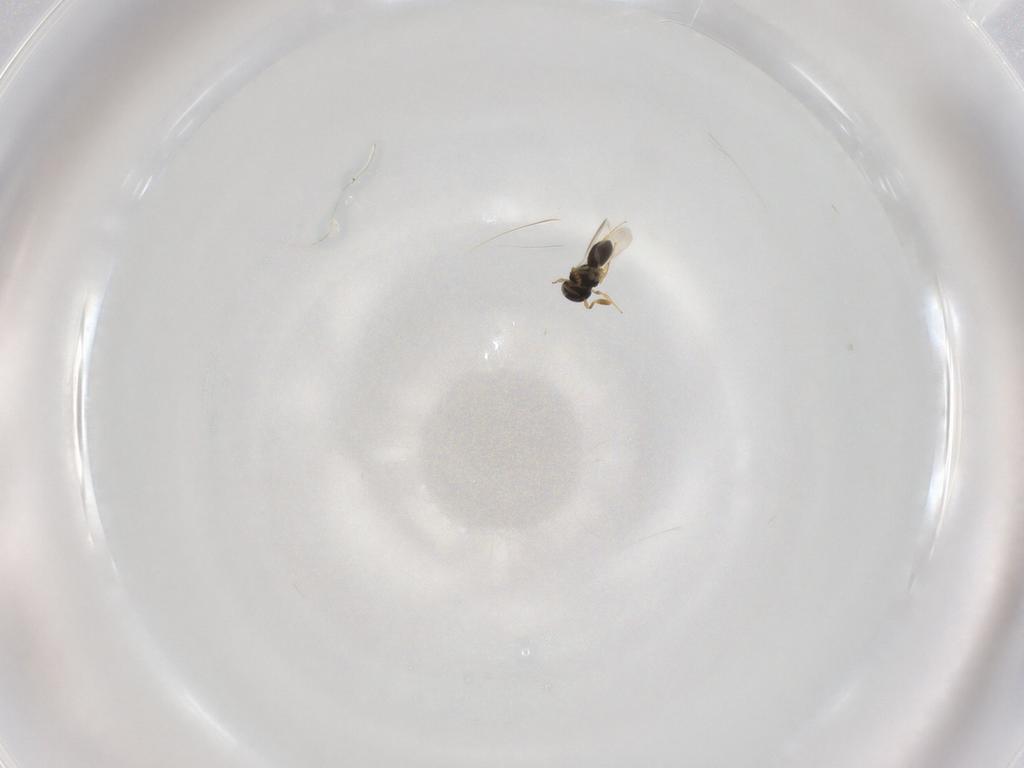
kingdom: Animalia
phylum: Arthropoda
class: Insecta
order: Hymenoptera
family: Scelionidae
